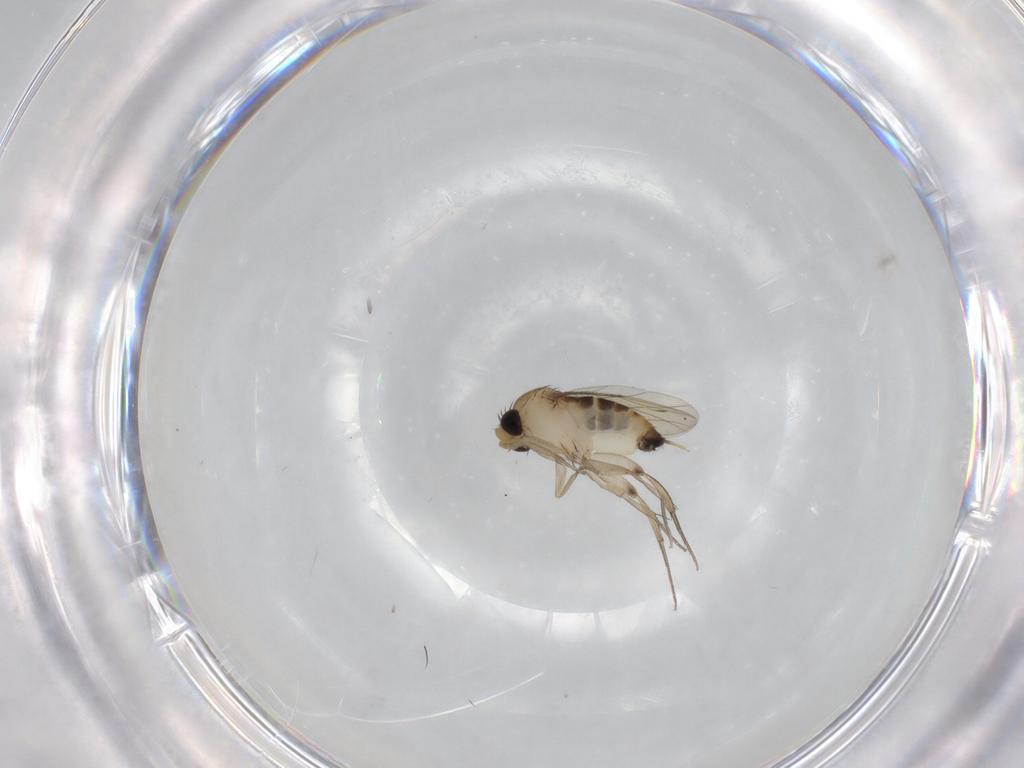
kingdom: Animalia
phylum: Arthropoda
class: Insecta
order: Diptera
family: Phoridae
